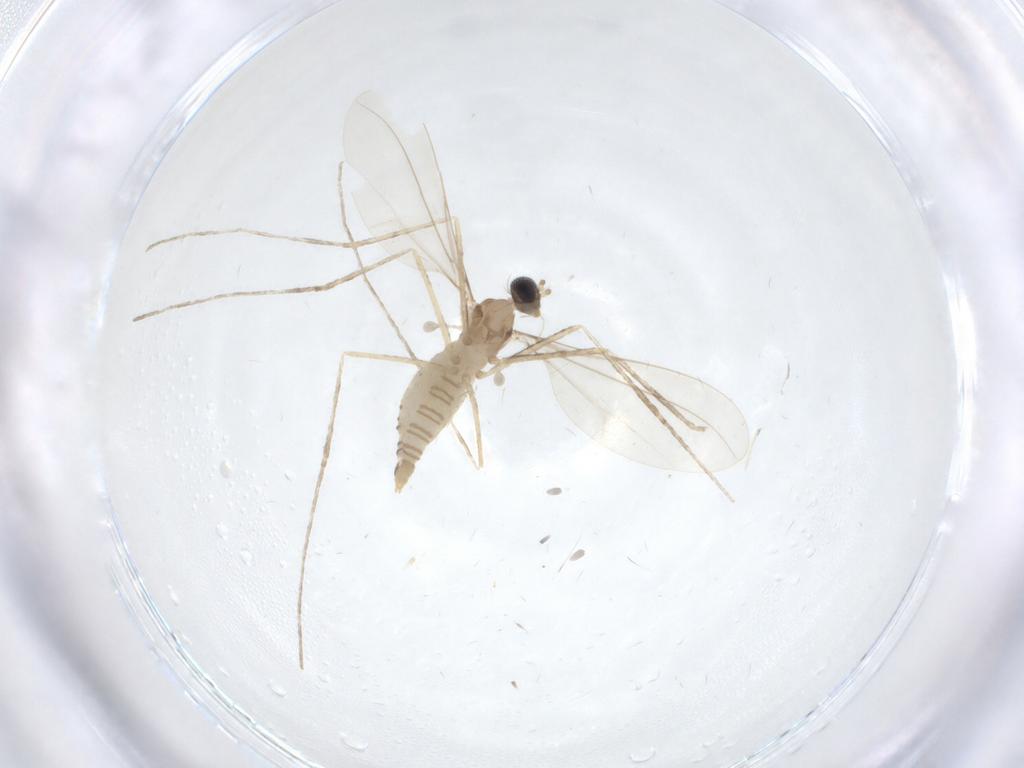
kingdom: Animalia
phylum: Arthropoda
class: Insecta
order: Diptera
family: Cecidomyiidae
